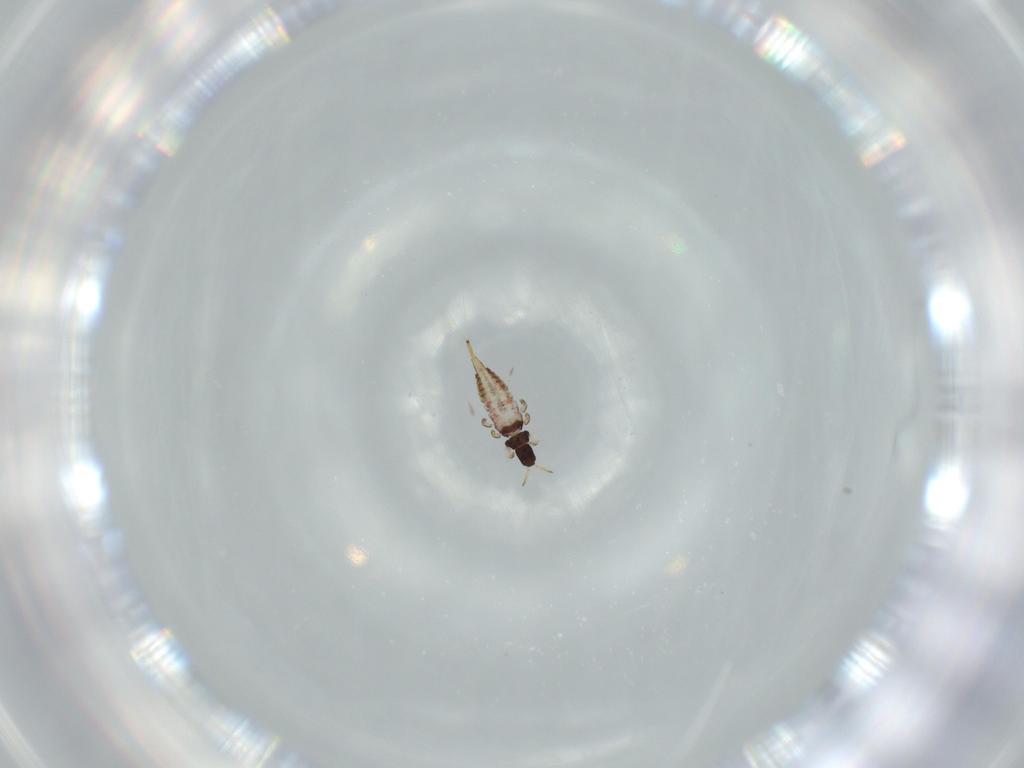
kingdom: Animalia
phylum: Arthropoda
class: Insecta
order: Thysanoptera
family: Phlaeothripidae
